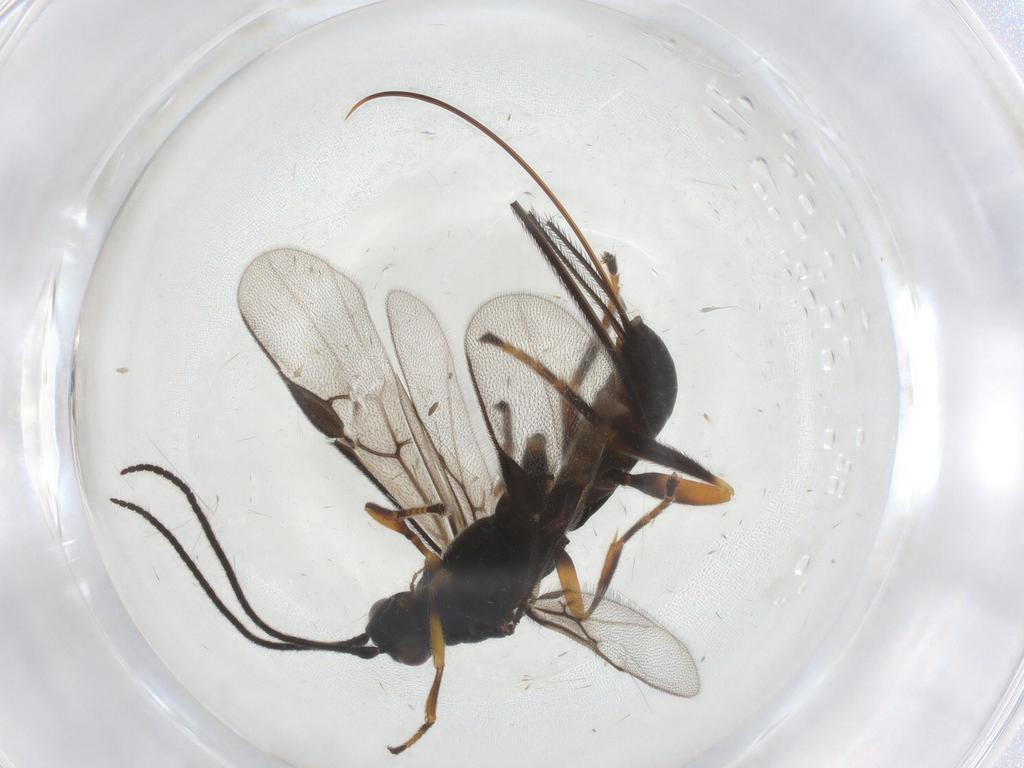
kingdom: Animalia
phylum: Arthropoda
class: Insecta
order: Hymenoptera
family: Braconidae
